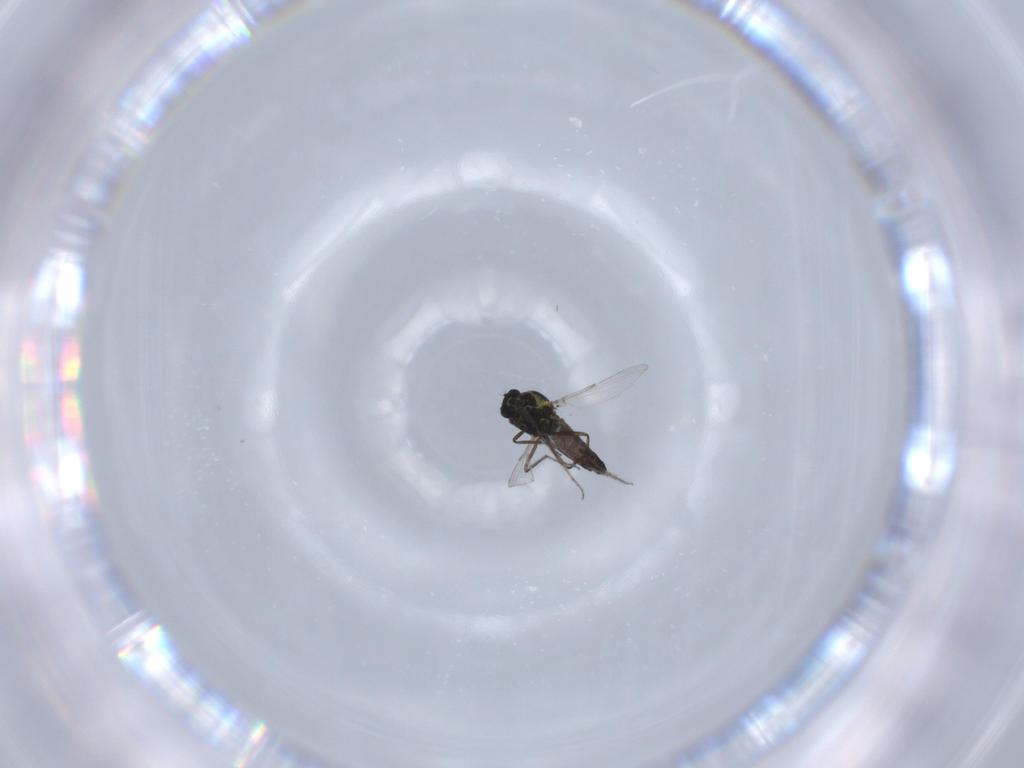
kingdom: Animalia
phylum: Arthropoda
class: Insecta
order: Diptera
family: Ceratopogonidae
